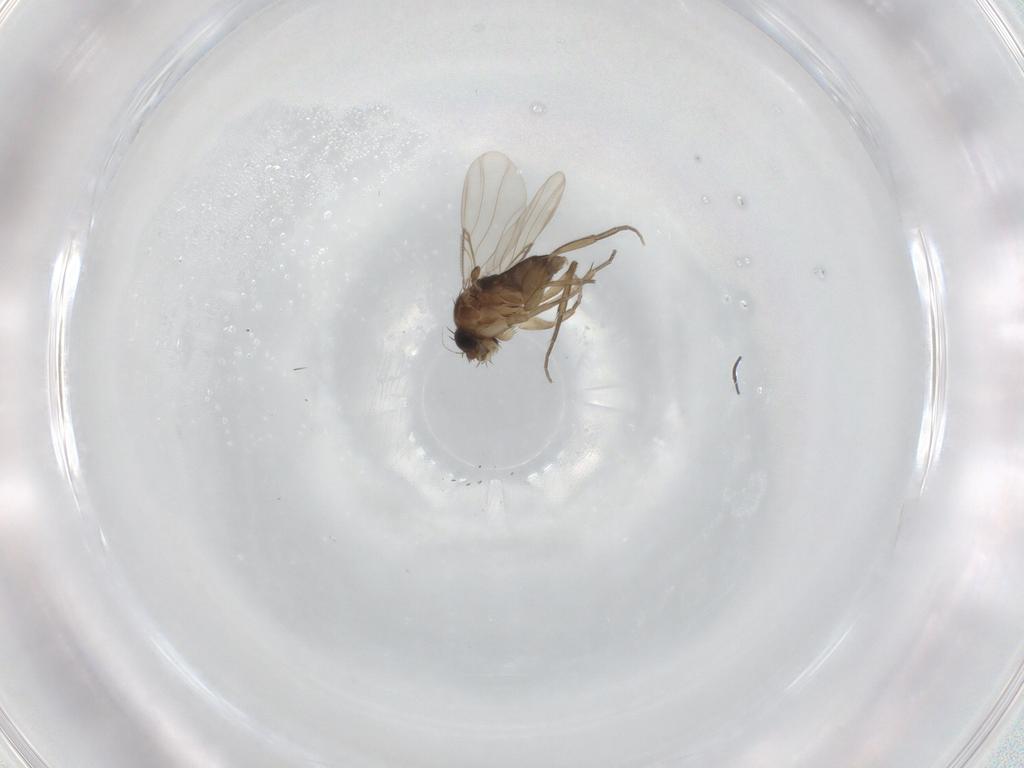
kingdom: Animalia
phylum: Arthropoda
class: Insecta
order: Diptera
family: Phoridae
